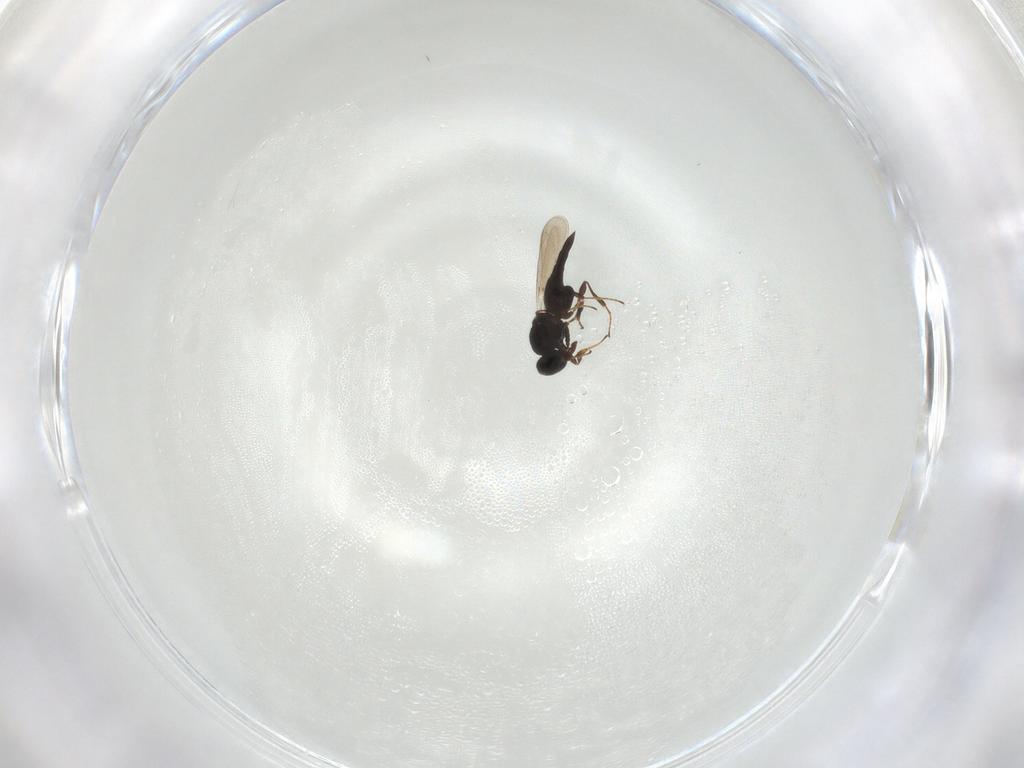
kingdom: Animalia
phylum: Arthropoda
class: Insecta
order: Hymenoptera
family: Platygastridae
